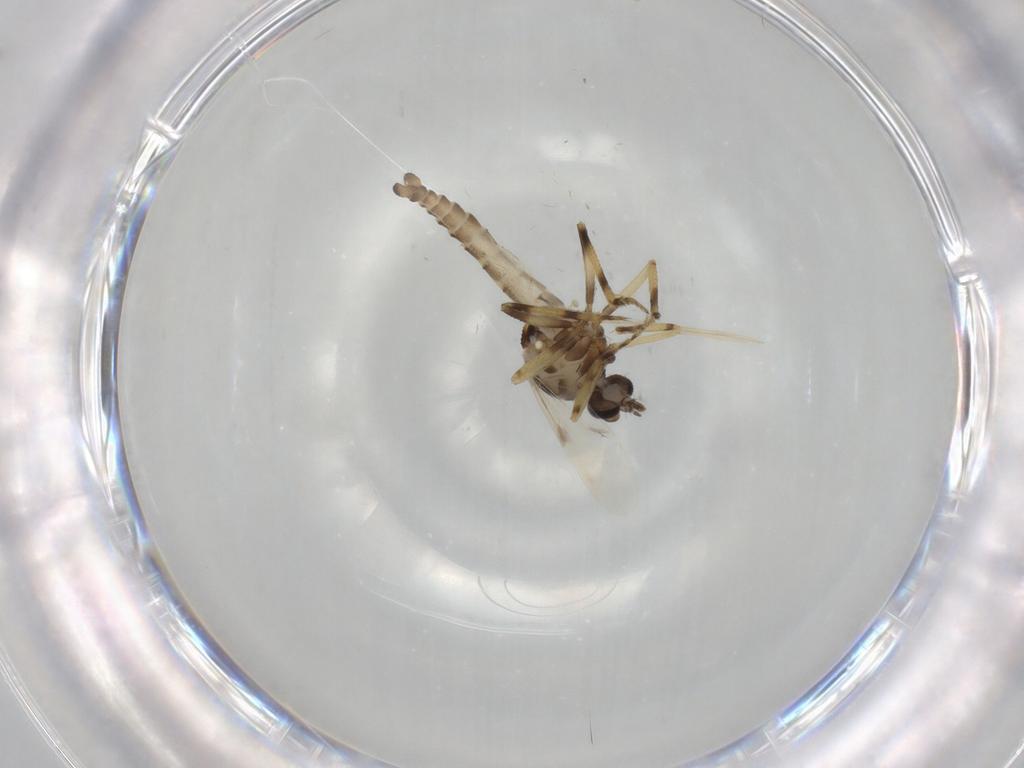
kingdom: Animalia
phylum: Arthropoda
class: Insecta
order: Diptera
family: Ceratopogonidae
